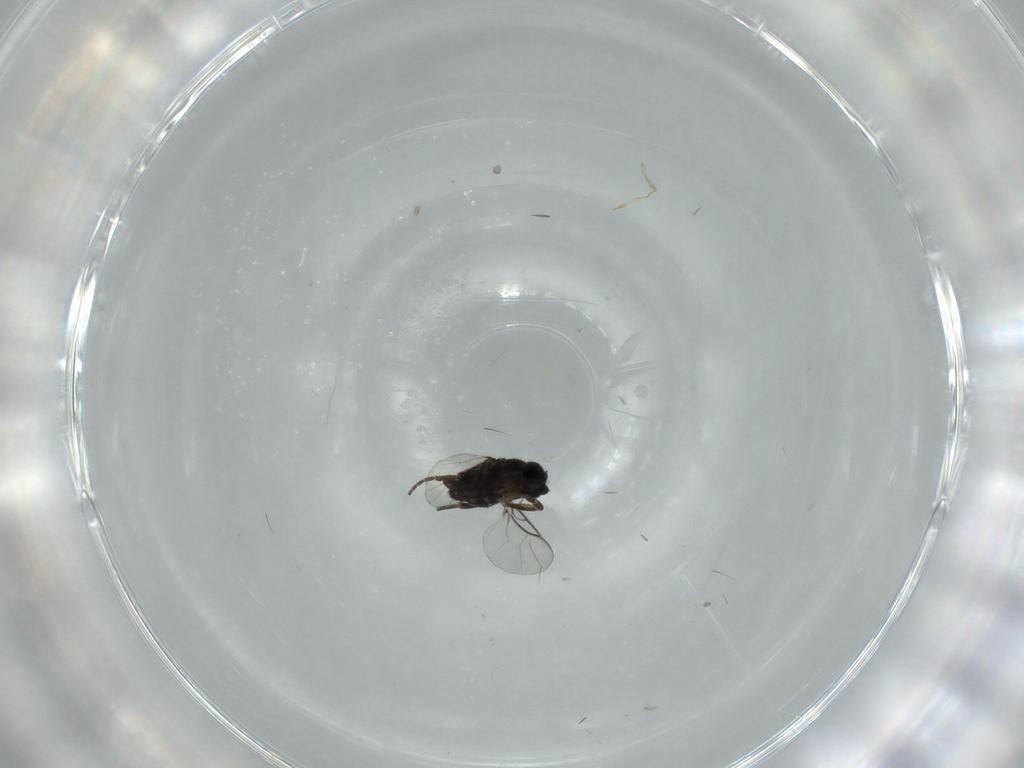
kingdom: Animalia
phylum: Arthropoda
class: Insecta
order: Diptera
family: Phoridae
